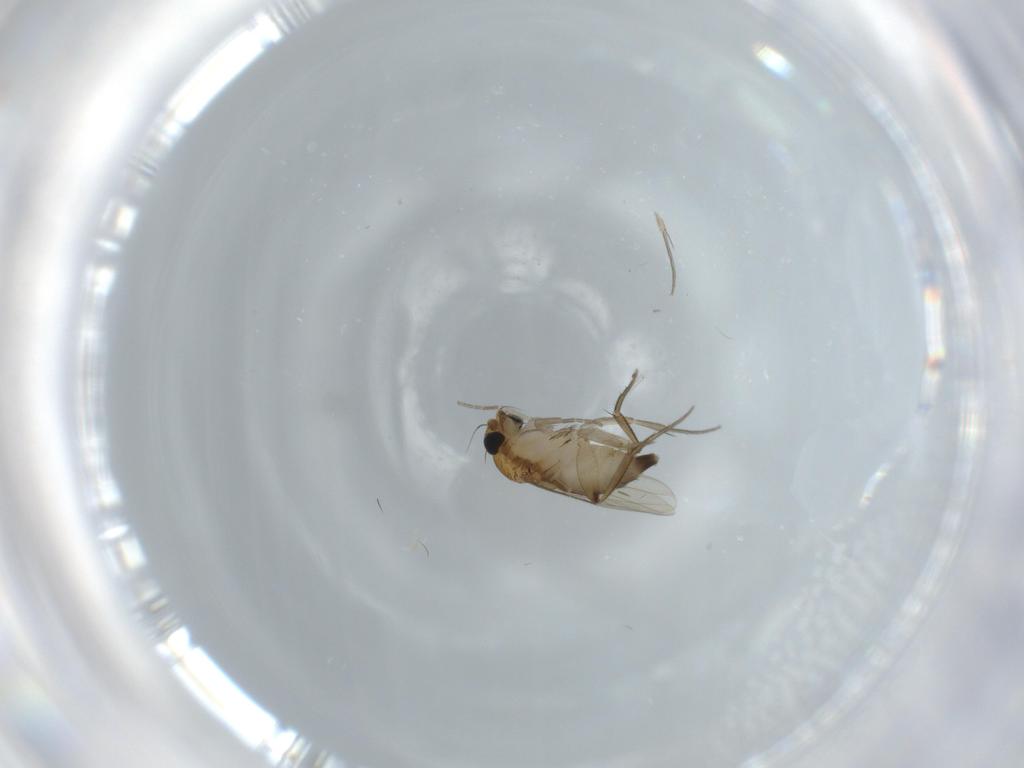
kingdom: Animalia
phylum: Arthropoda
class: Insecta
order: Diptera
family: Phoridae
